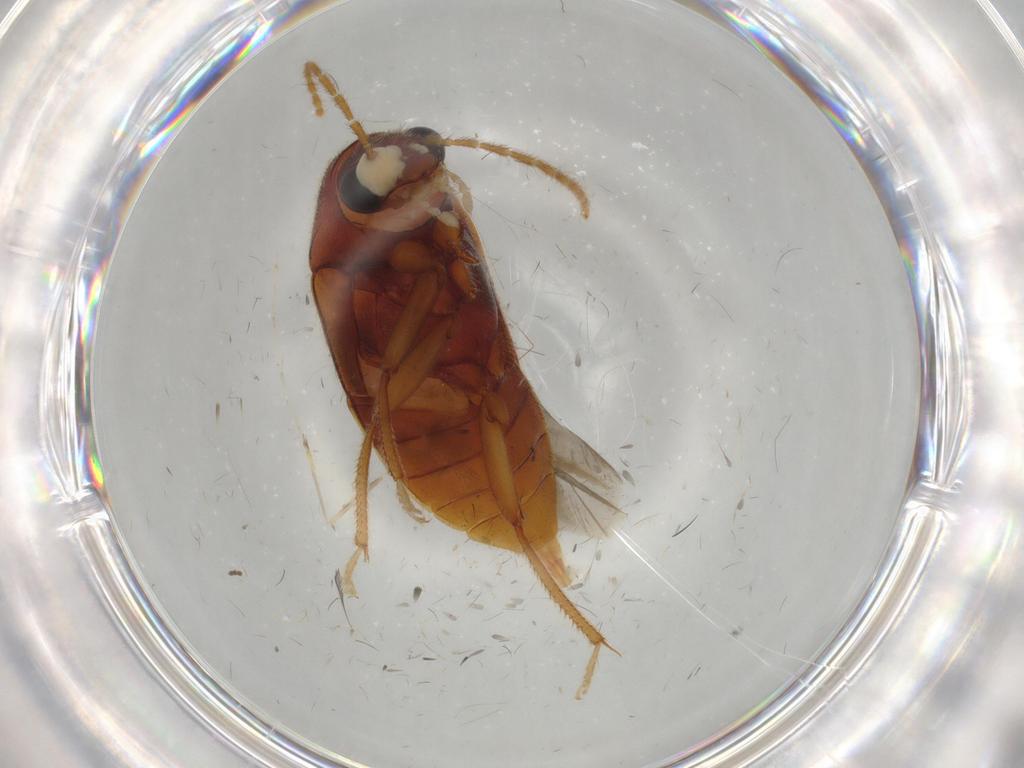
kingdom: Animalia
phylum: Arthropoda
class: Insecta
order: Coleoptera
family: Ptilodactylidae
